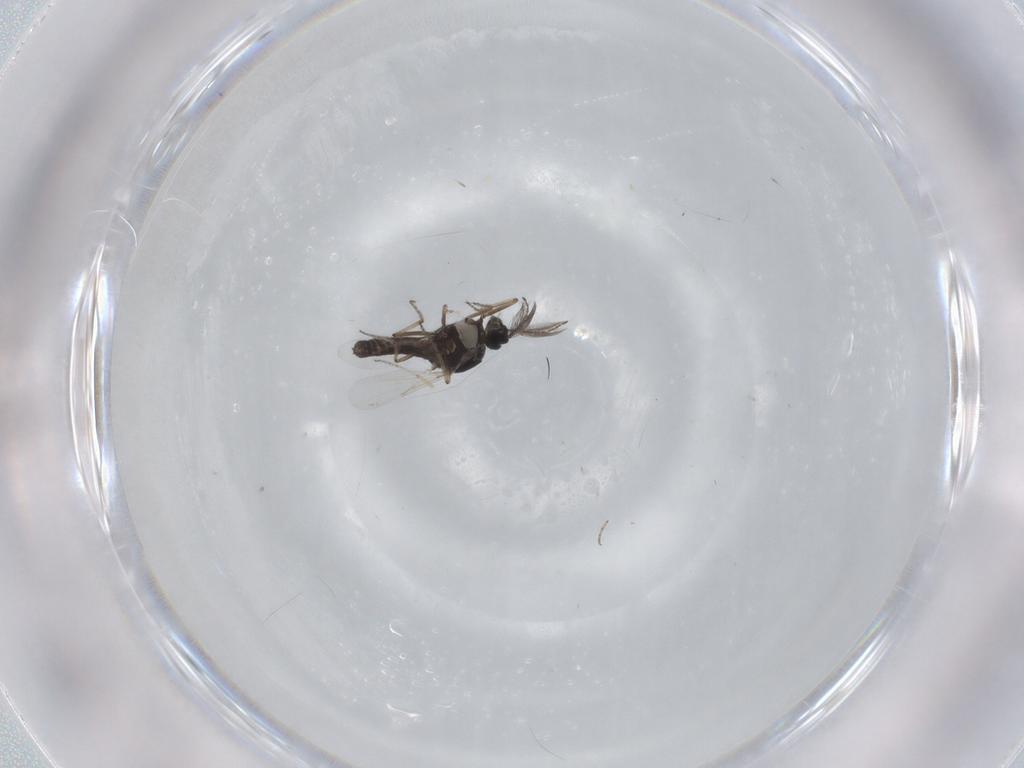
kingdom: Animalia
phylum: Arthropoda
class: Insecta
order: Diptera
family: Ceratopogonidae
